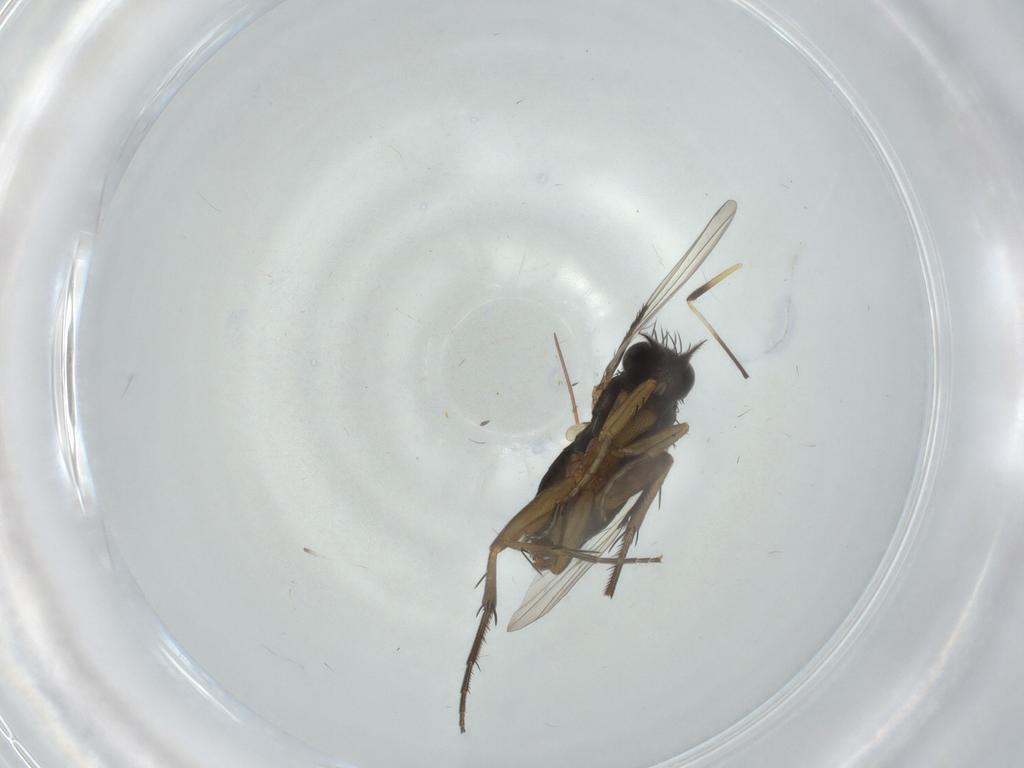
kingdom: Animalia
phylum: Arthropoda
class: Insecta
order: Diptera
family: Phoridae
